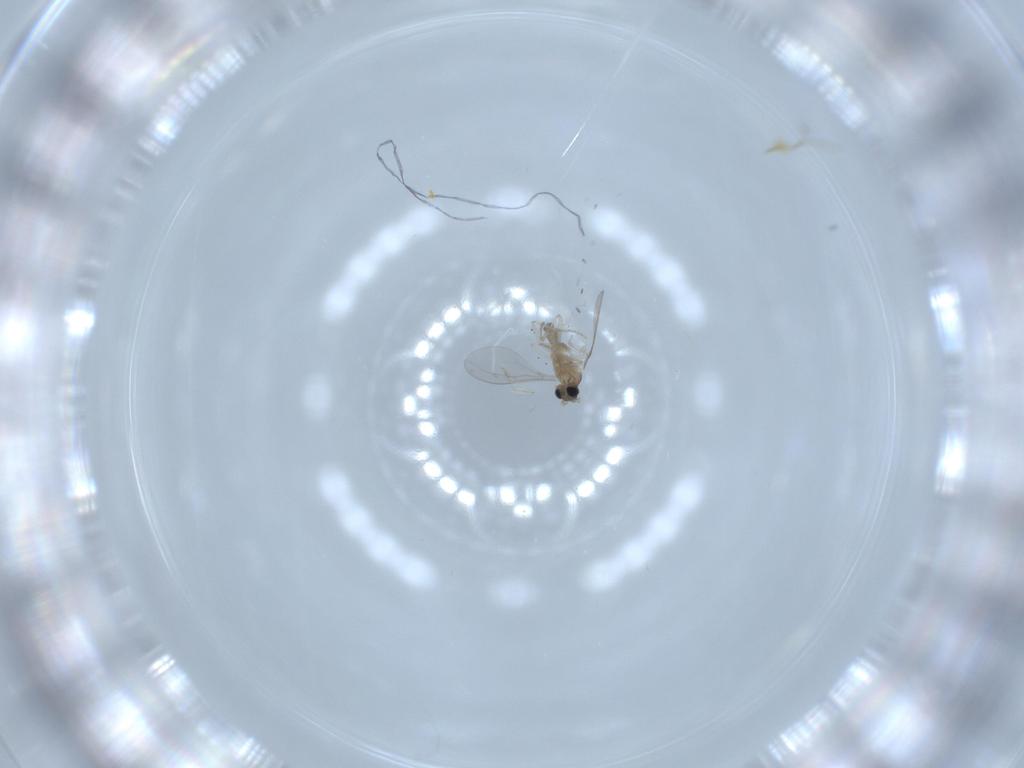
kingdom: Animalia
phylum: Arthropoda
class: Insecta
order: Diptera
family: Cecidomyiidae
